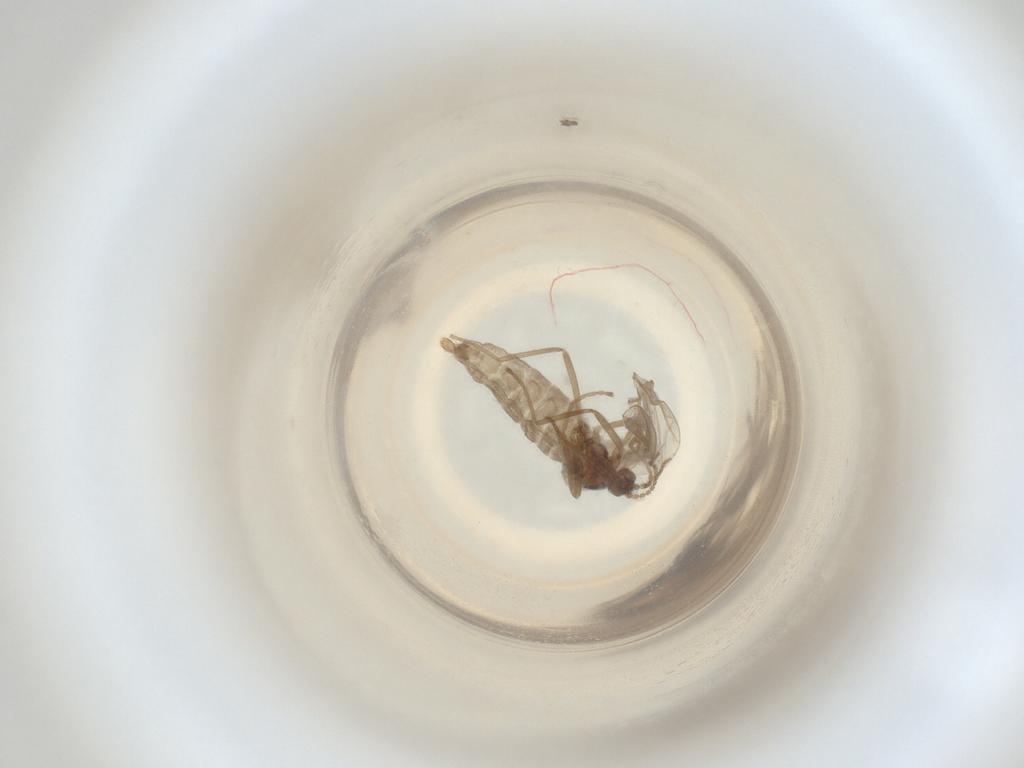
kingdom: Animalia
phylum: Arthropoda
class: Insecta
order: Diptera
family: Cecidomyiidae
